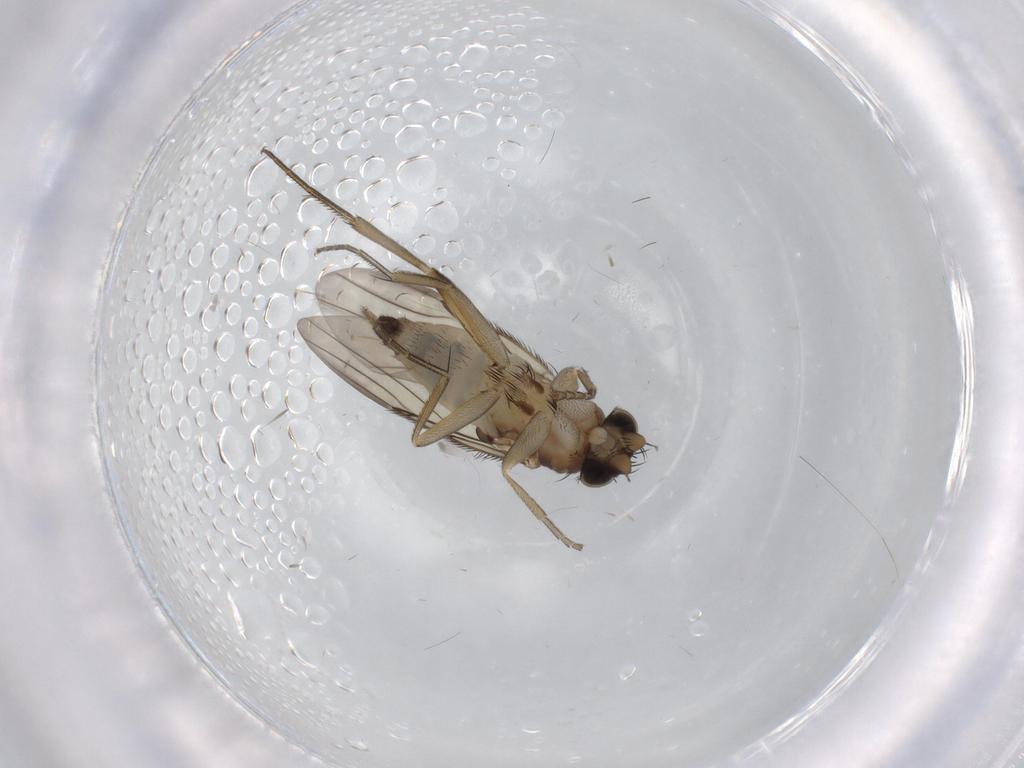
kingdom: Animalia
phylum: Arthropoda
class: Insecta
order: Diptera
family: Phoridae
